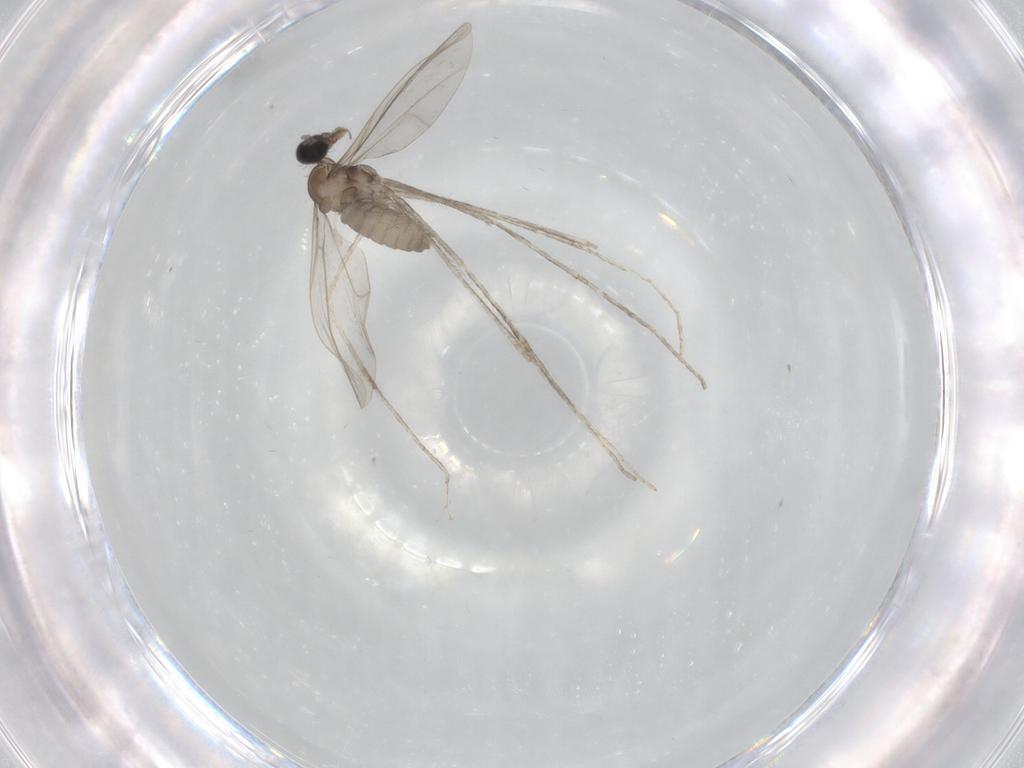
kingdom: Animalia
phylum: Arthropoda
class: Insecta
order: Diptera
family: Cecidomyiidae
